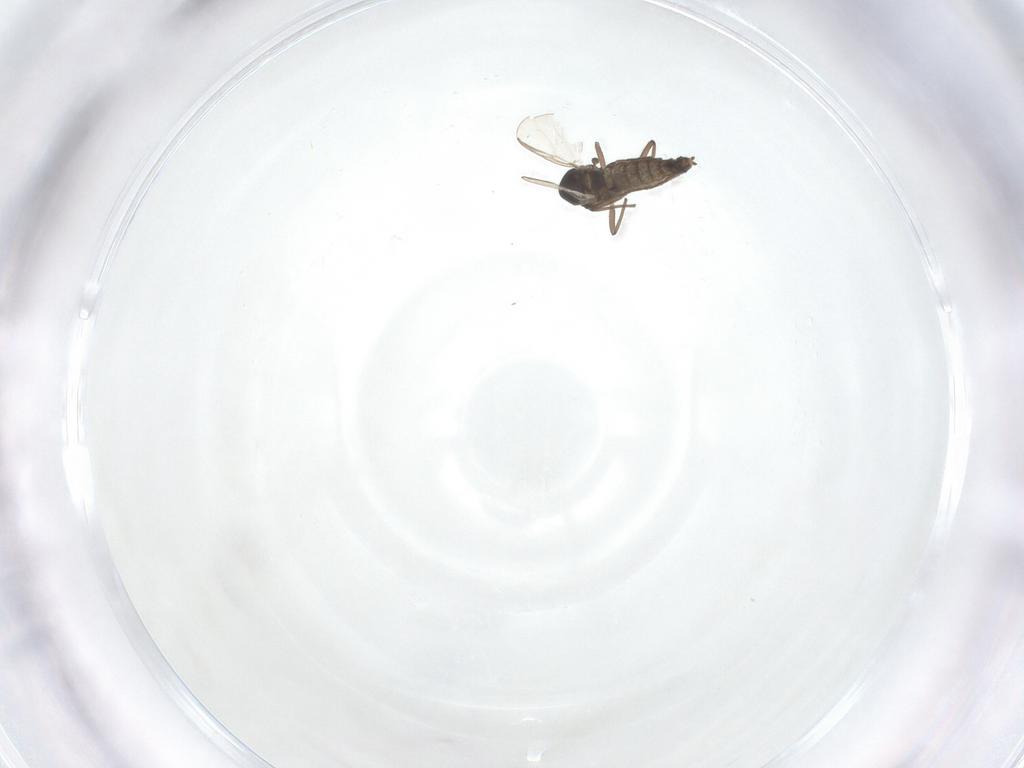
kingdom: Animalia
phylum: Arthropoda
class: Insecta
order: Diptera
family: Chironomidae
